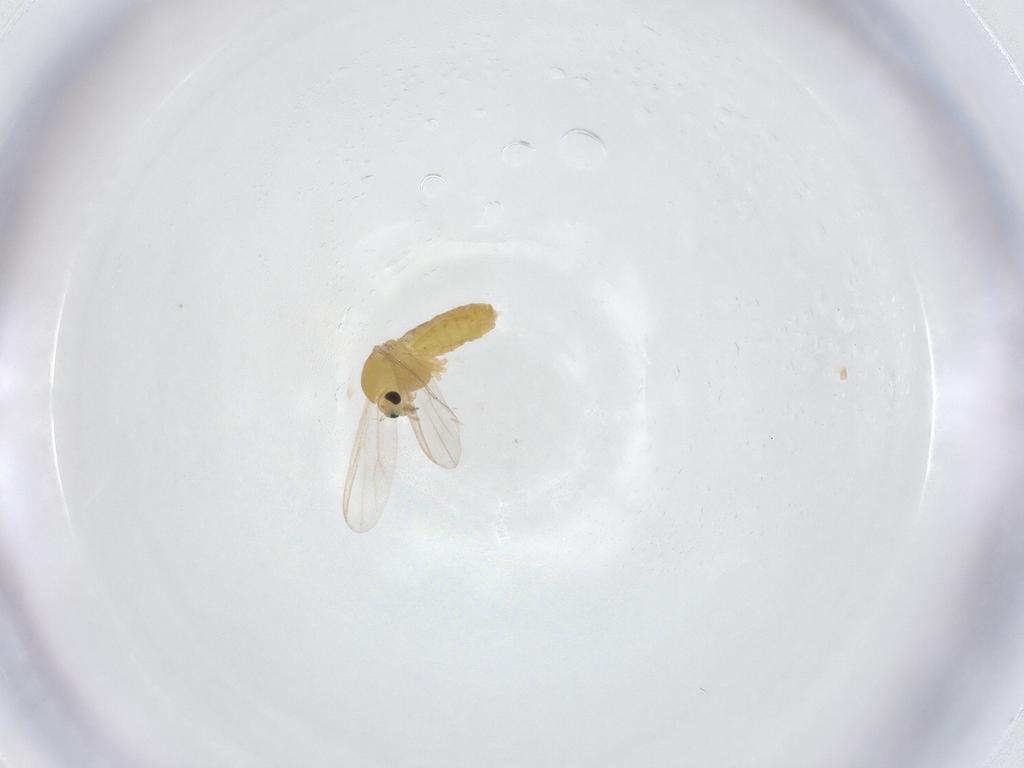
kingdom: Animalia
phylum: Arthropoda
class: Insecta
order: Diptera
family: Chironomidae
